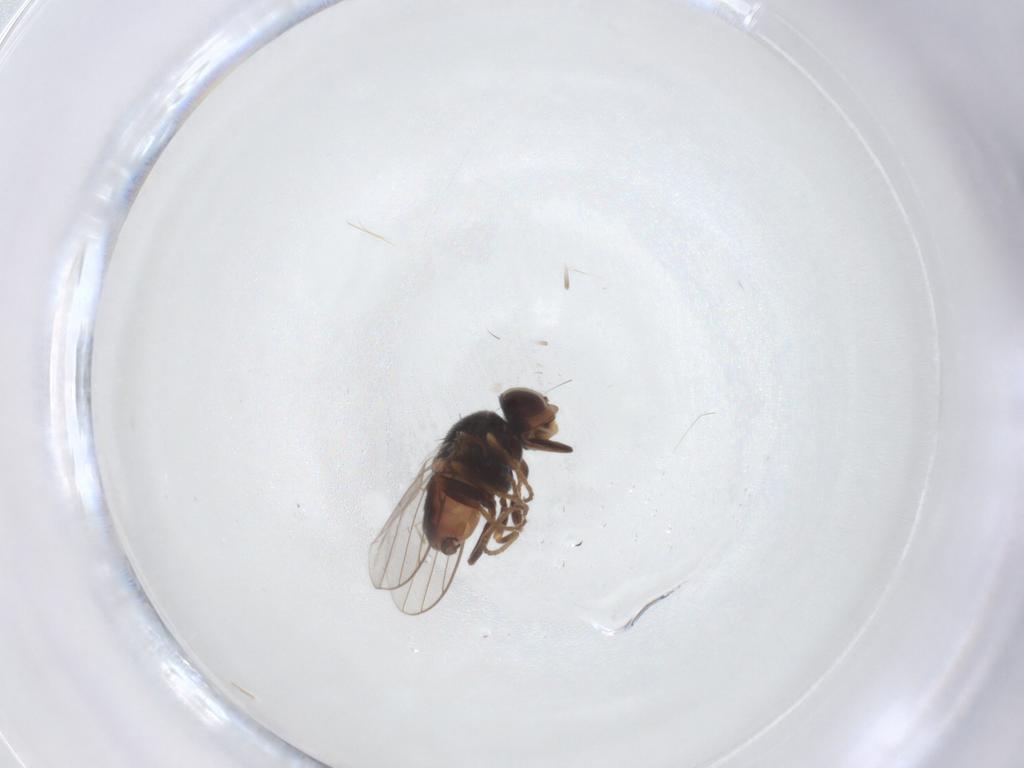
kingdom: Animalia
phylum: Arthropoda
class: Insecta
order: Diptera
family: Chloropidae
